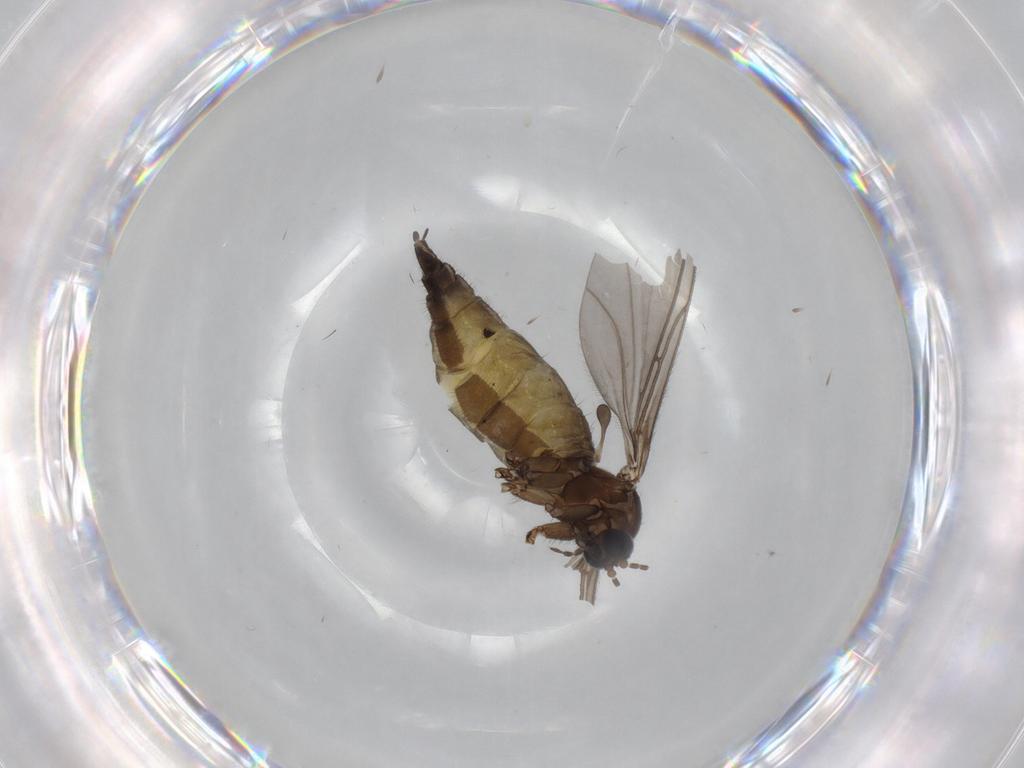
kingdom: Animalia
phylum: Arthropoda
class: Insecta
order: Diptera
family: Sciaridae
